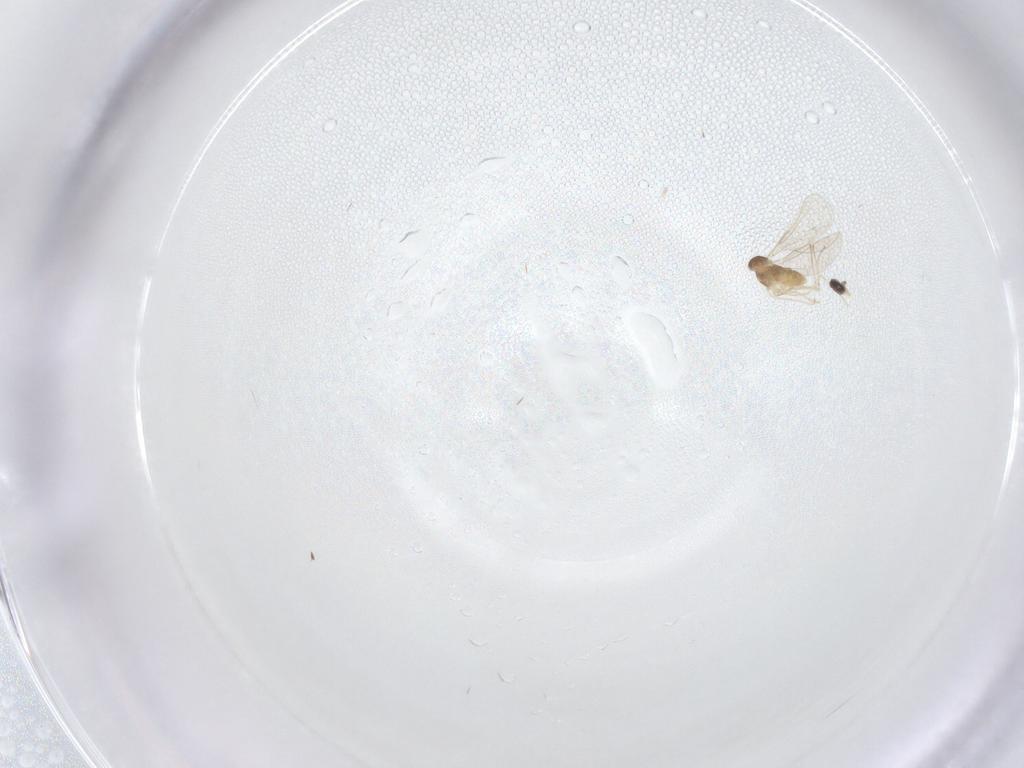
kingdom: Animalia
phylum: Arthropoda
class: Insecta
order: Diptera
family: Cecidomyiidae
